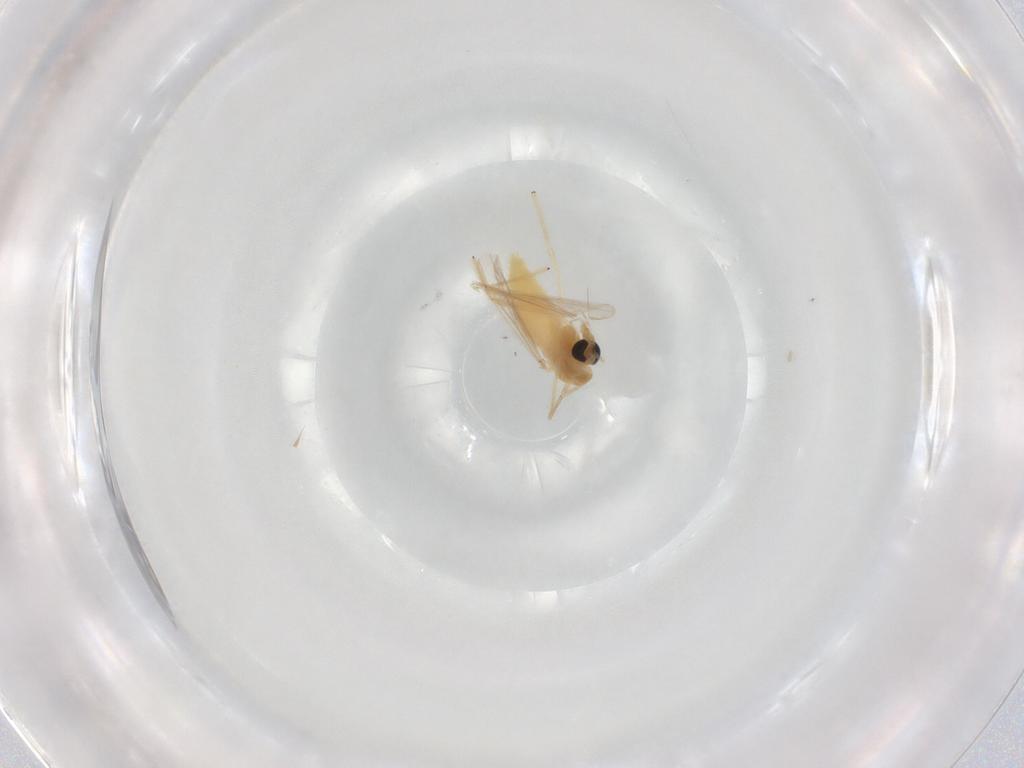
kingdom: Animalia
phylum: Arthropoda
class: Insecta
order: Diptera
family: Chironomidae
